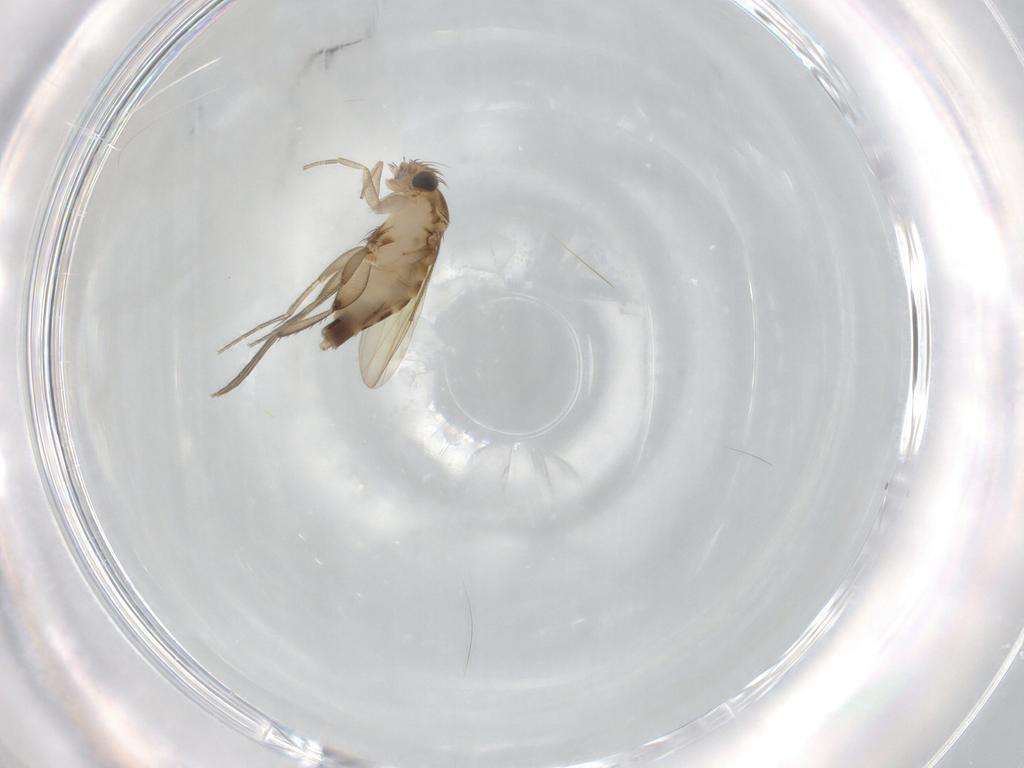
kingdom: Animalia
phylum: Arthropoda
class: Insecta
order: Diptera
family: Phoridae
